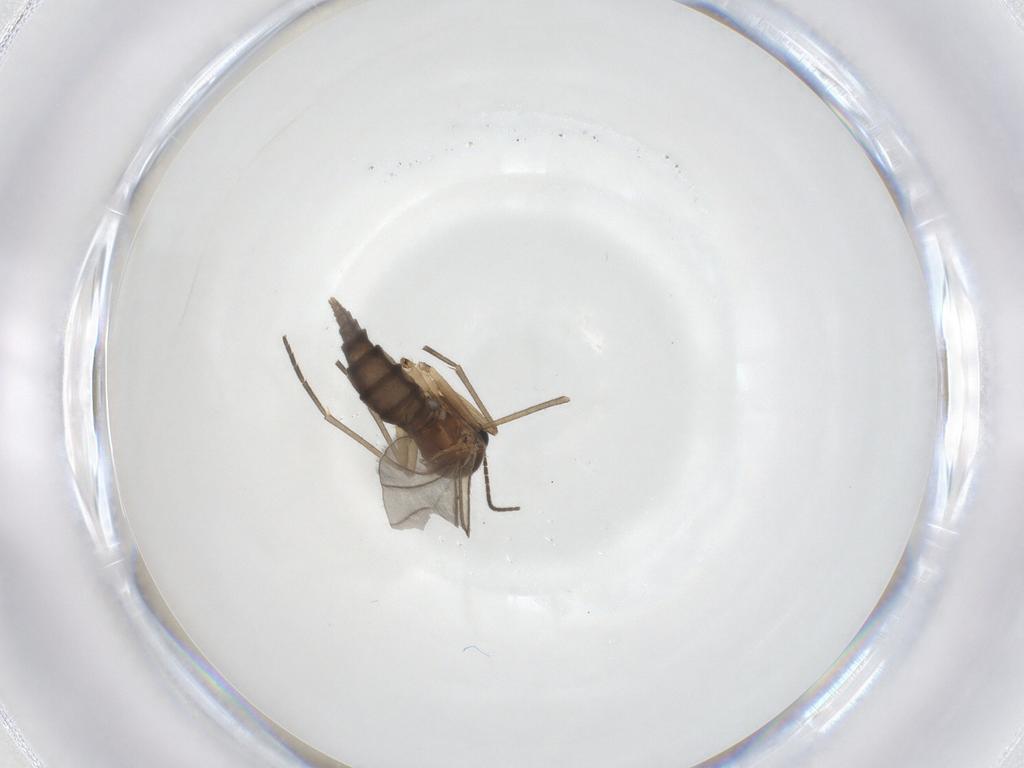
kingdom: Animalia
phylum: Arthropoda
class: Insecta
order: Diptera
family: Sciaridae
